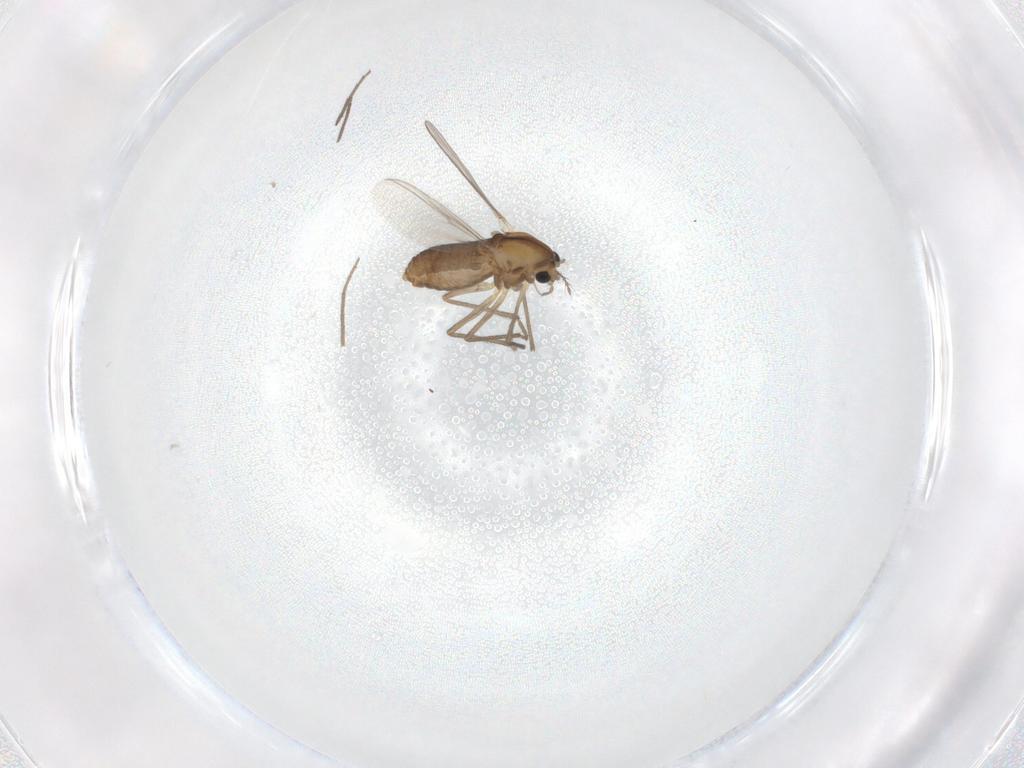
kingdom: Animalia
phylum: Arthropoda
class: Insecta
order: Diptera
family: Chironomidae
